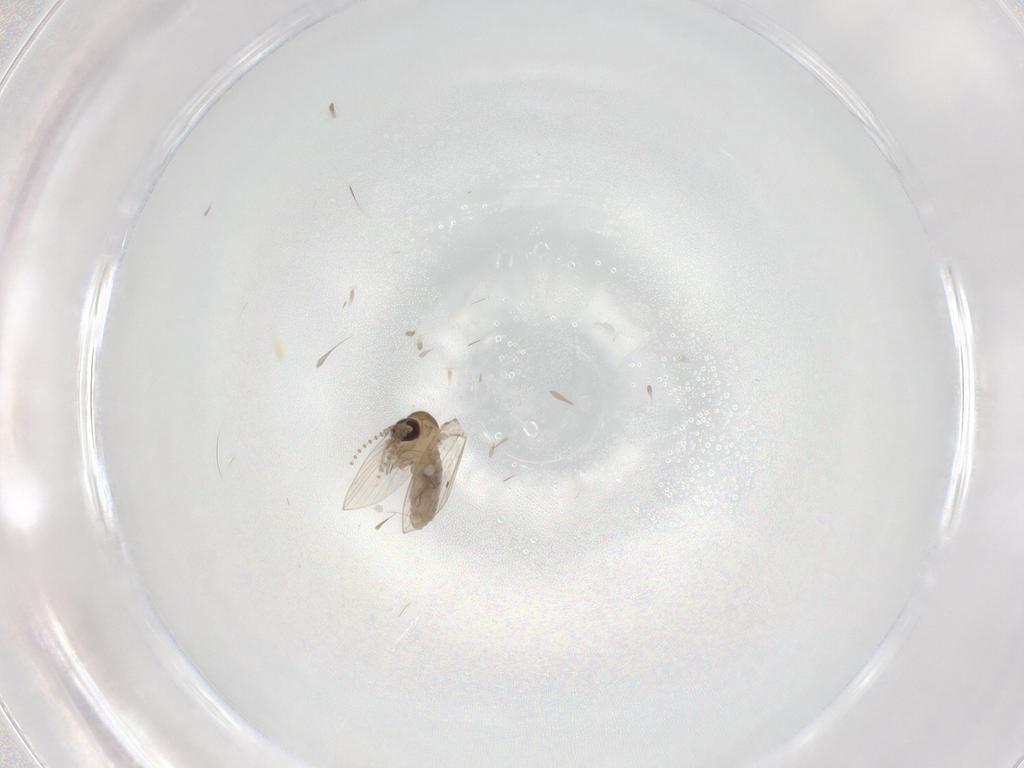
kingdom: Animalia
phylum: Arthropoda
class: Insecta
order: Diptera
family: Psychodidae
